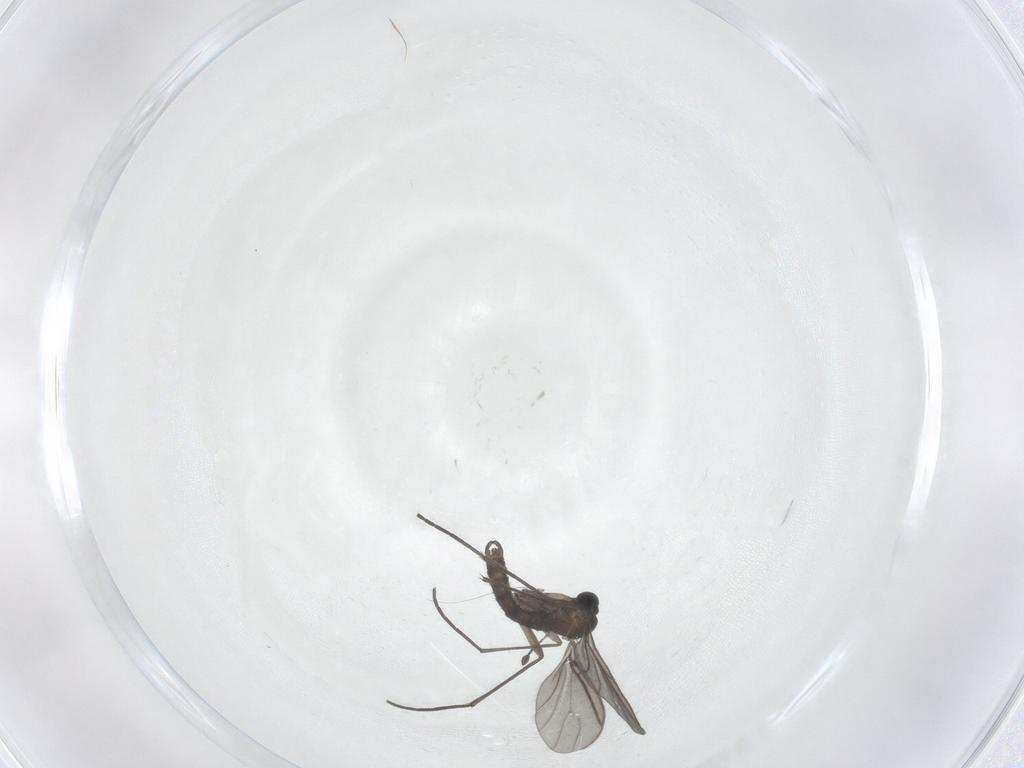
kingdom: Animalia
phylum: Arthropoda
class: Insecta
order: Diptera
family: Sciaridae
